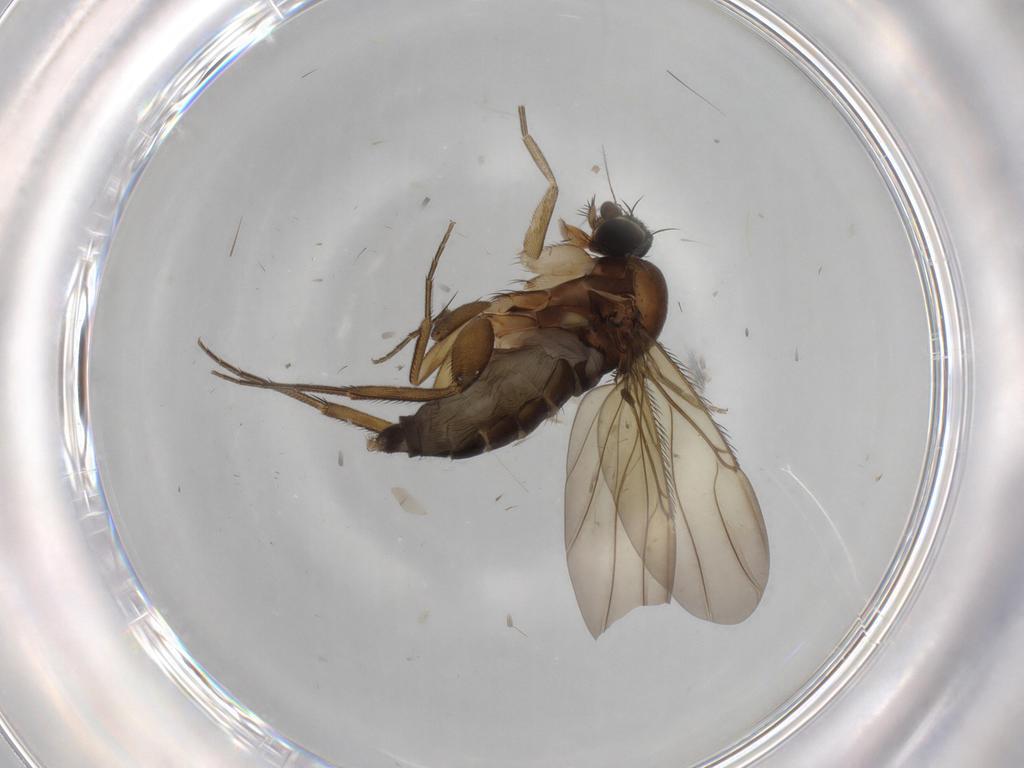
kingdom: Animalia
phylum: Arthropoda
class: Insecta
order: Diptera
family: Phoridae
